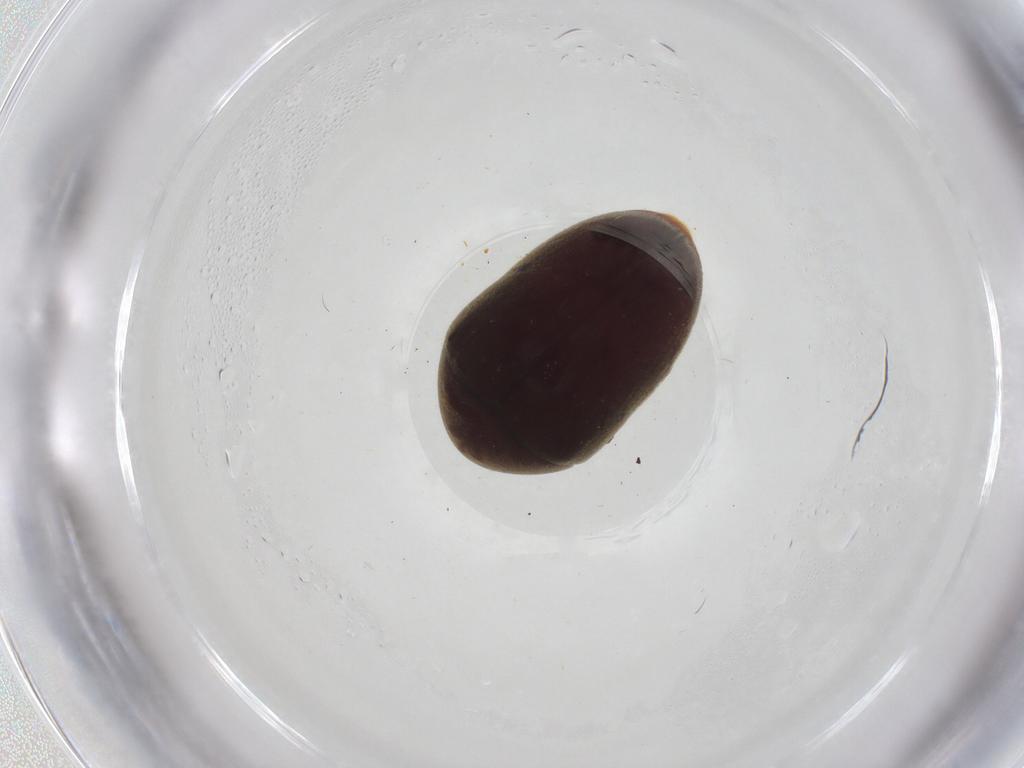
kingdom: Animalia
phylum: Arthropoda
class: Insecta
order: Coleoptera
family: Anobiidae
